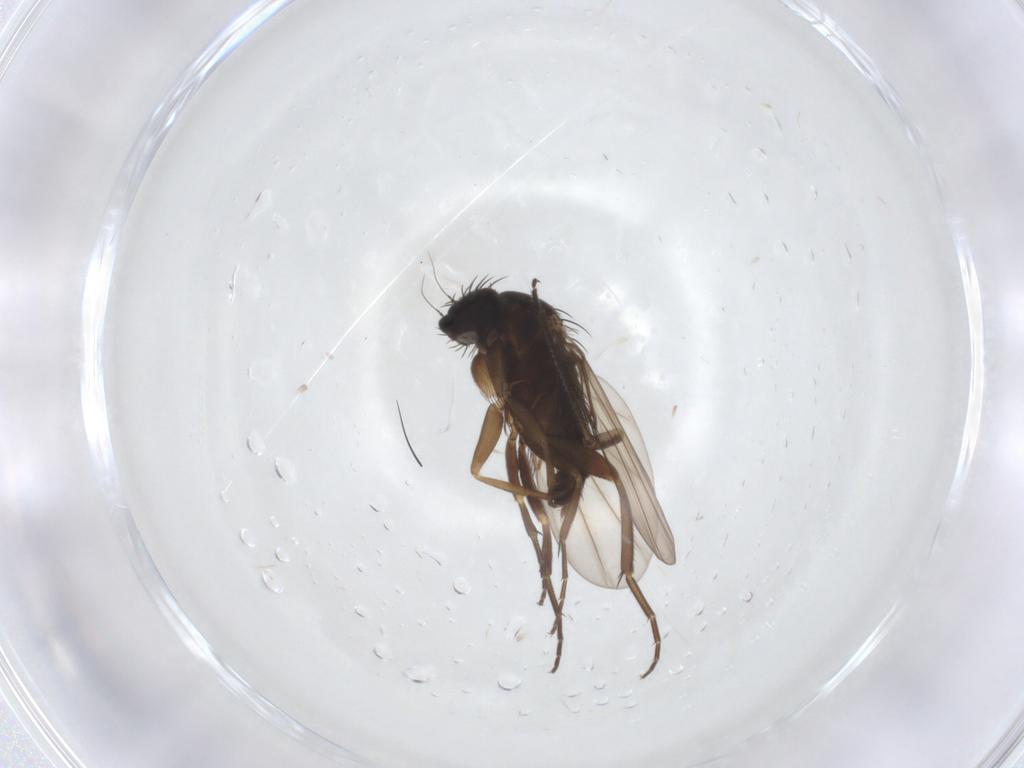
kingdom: Animalia
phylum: Arthropoda
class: Insecta
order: Diptera
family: Phoridae
